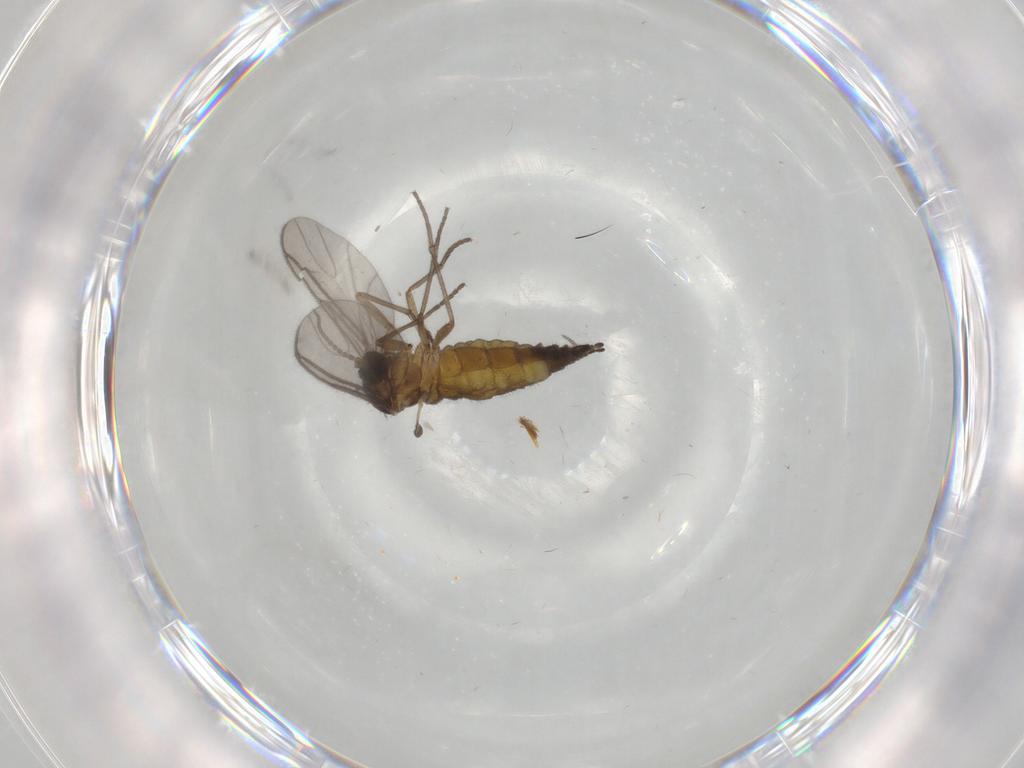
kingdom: Animalia
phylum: Arthropoda
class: Insecta
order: Diptera
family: Sciaridae
